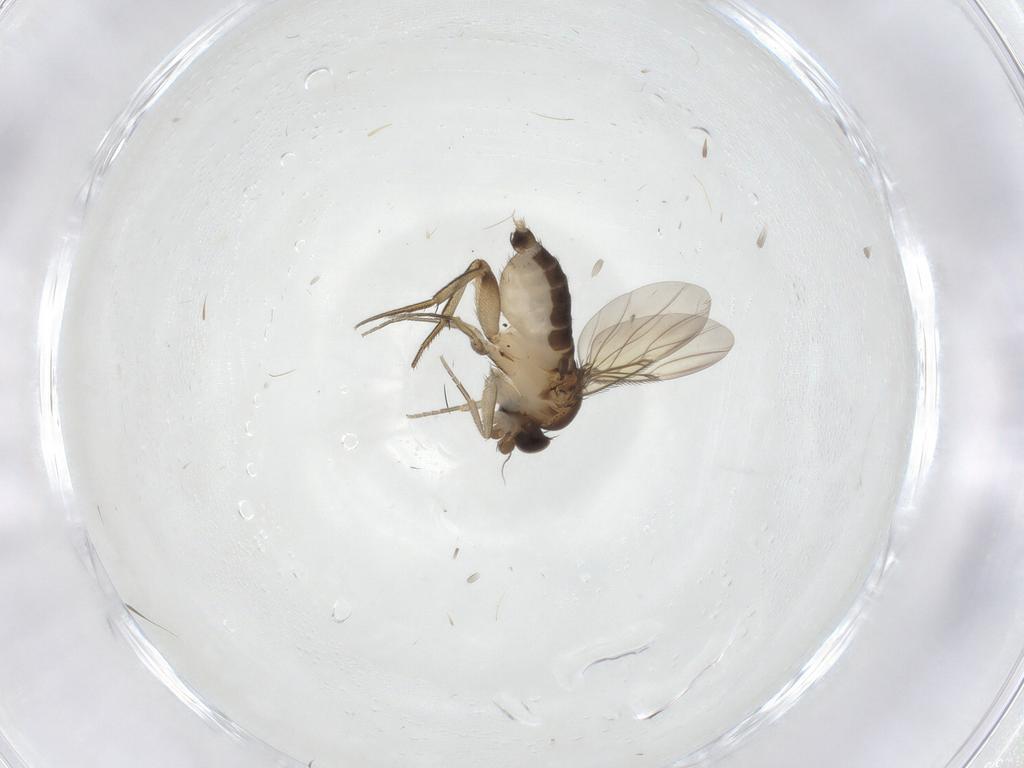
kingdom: Animalia
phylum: Arthropoda
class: Insecta
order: Diptera
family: Phoridae
